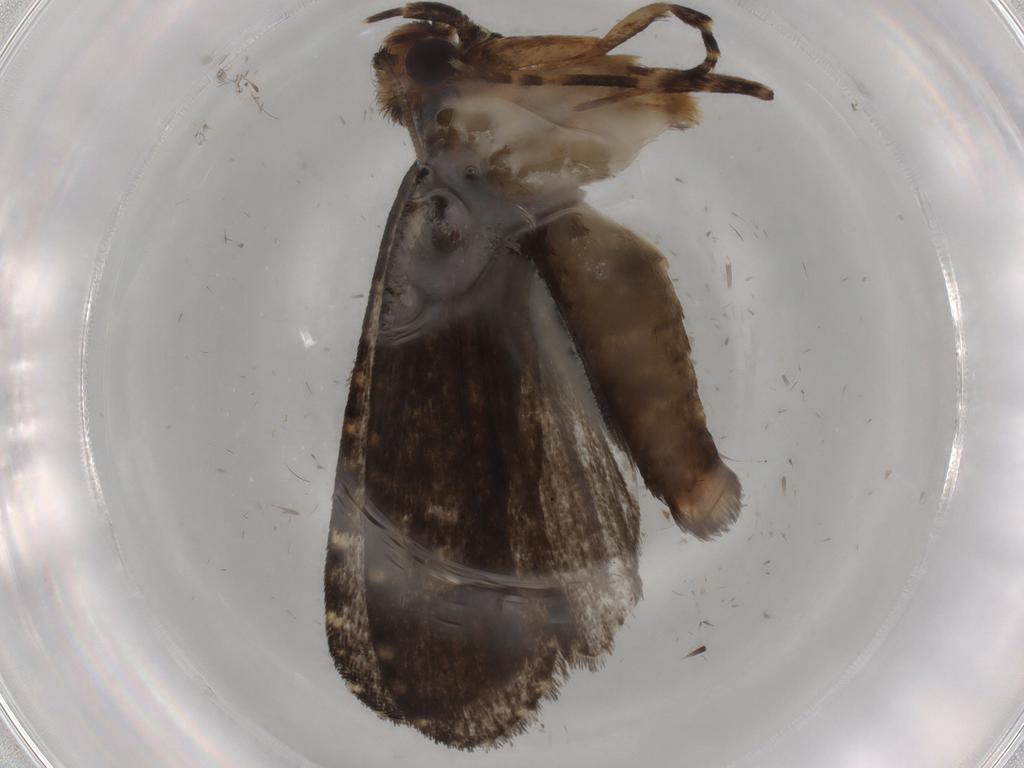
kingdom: Animalia
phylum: Arthropoda
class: Insecta
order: Lepidoptera
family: Tineidae
